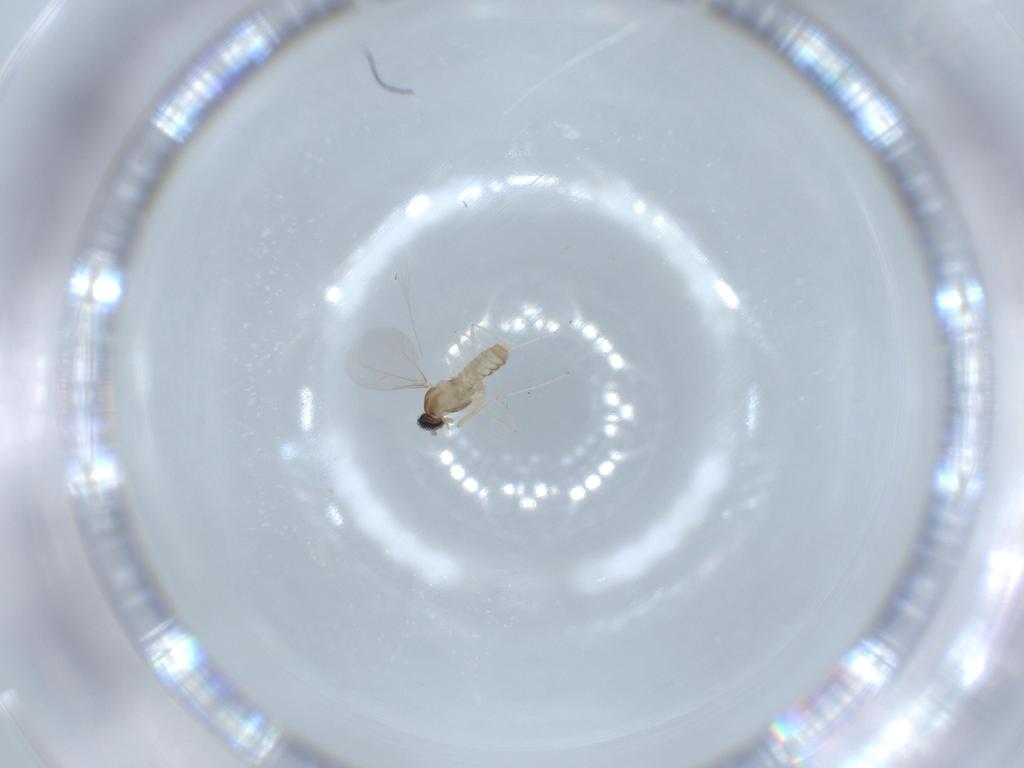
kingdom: Animalia
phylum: Arthropoda
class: Insecta
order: Diptera
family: Cecidomyiidae
